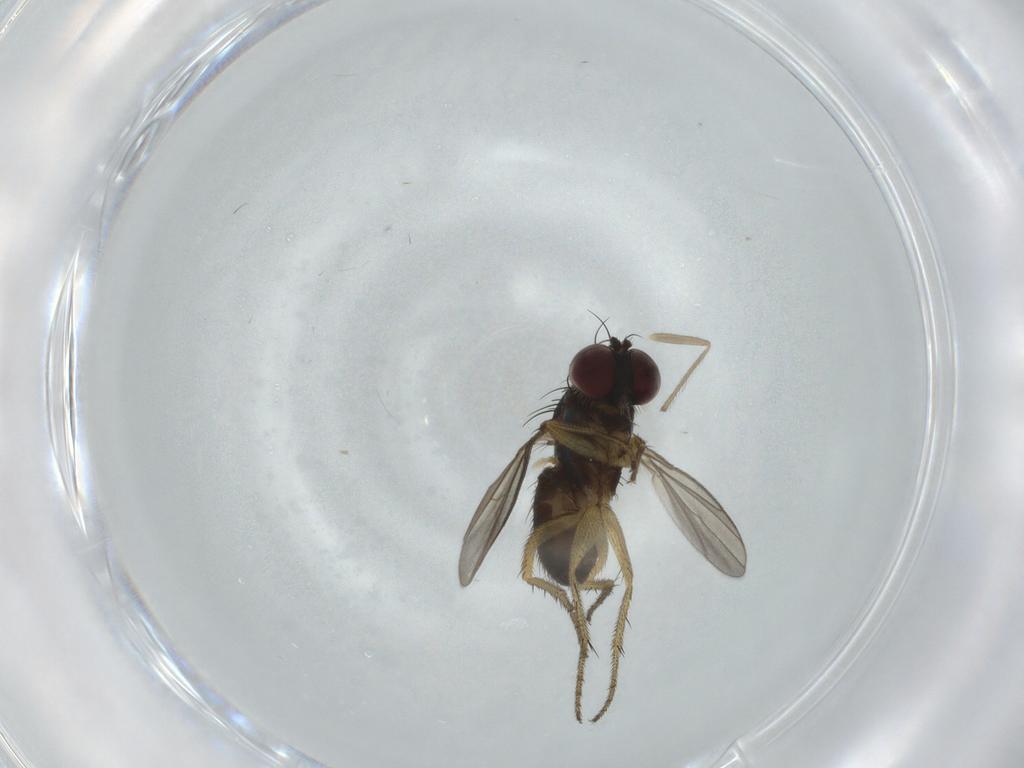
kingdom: Animalia
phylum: Arthropoda
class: Insecta
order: Diptera
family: Dolichopodidae
